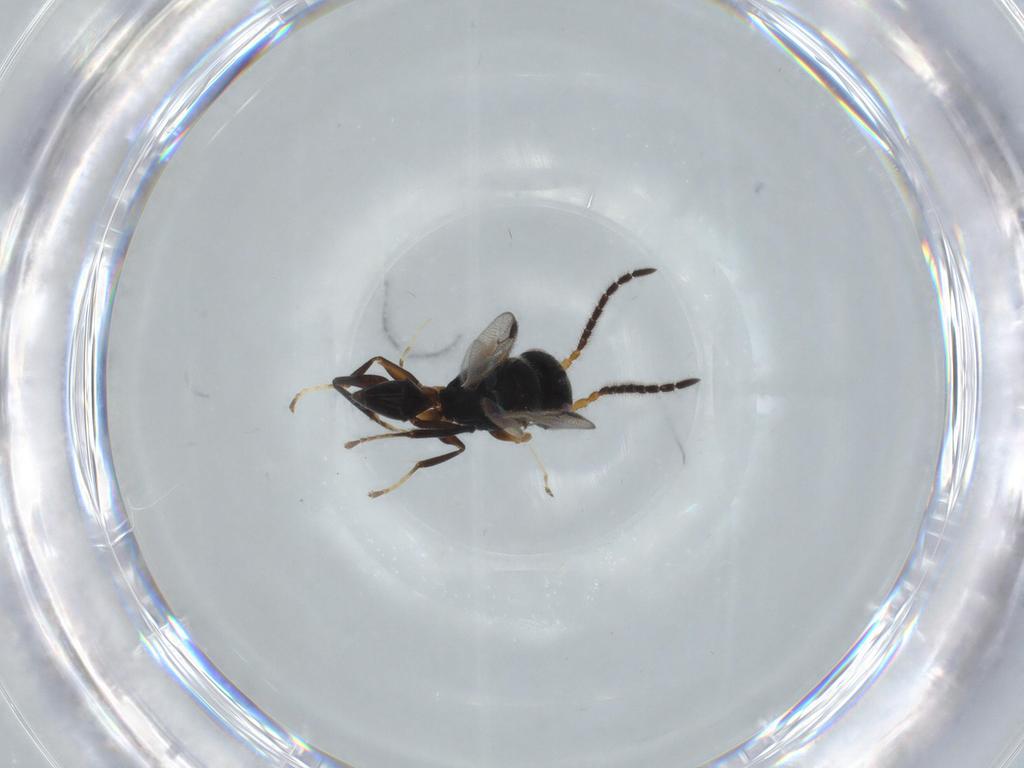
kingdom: Animalia
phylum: Arthropoda
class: Insecta
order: Hymenoptera
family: Dryinidae
